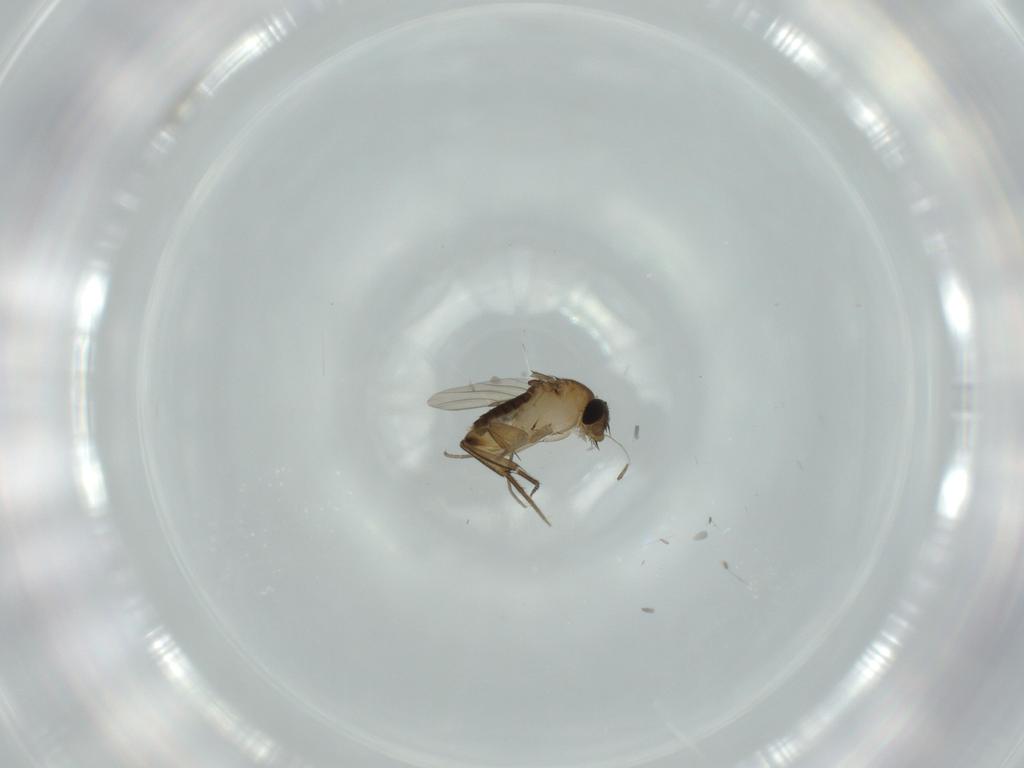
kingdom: Animalia
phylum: Arthropoda
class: Insecta
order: Diptera
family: Phoridae
